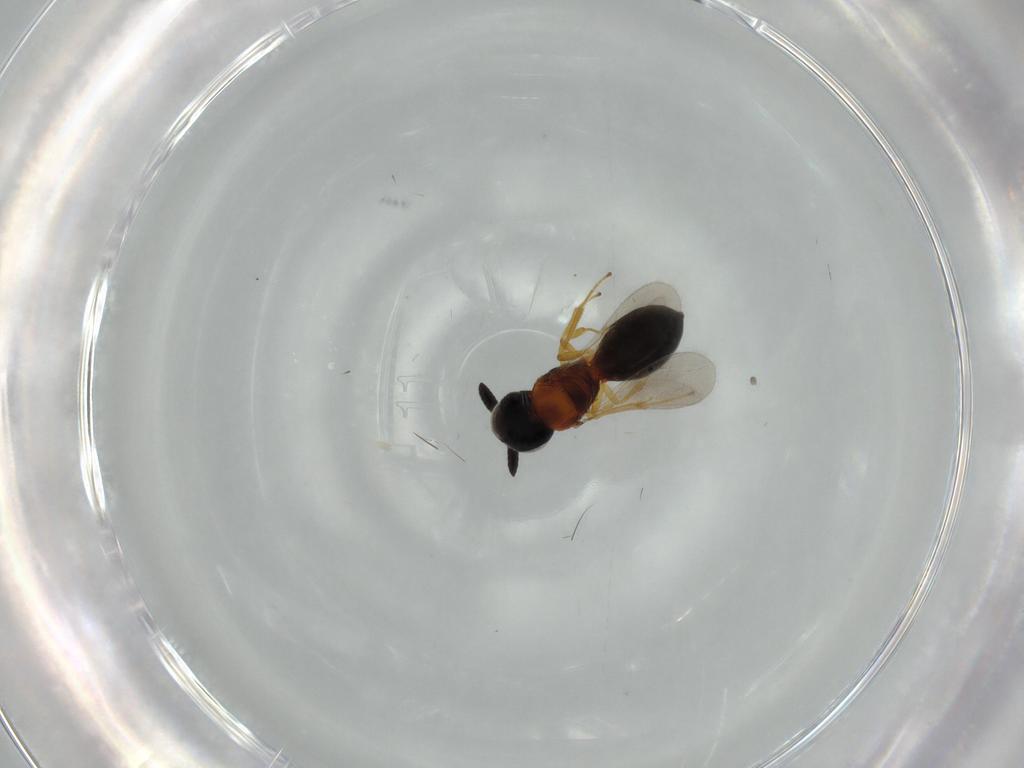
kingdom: Animalia
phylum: Arthropoda
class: Insecta
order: Hymenoptera
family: Scelionidae
